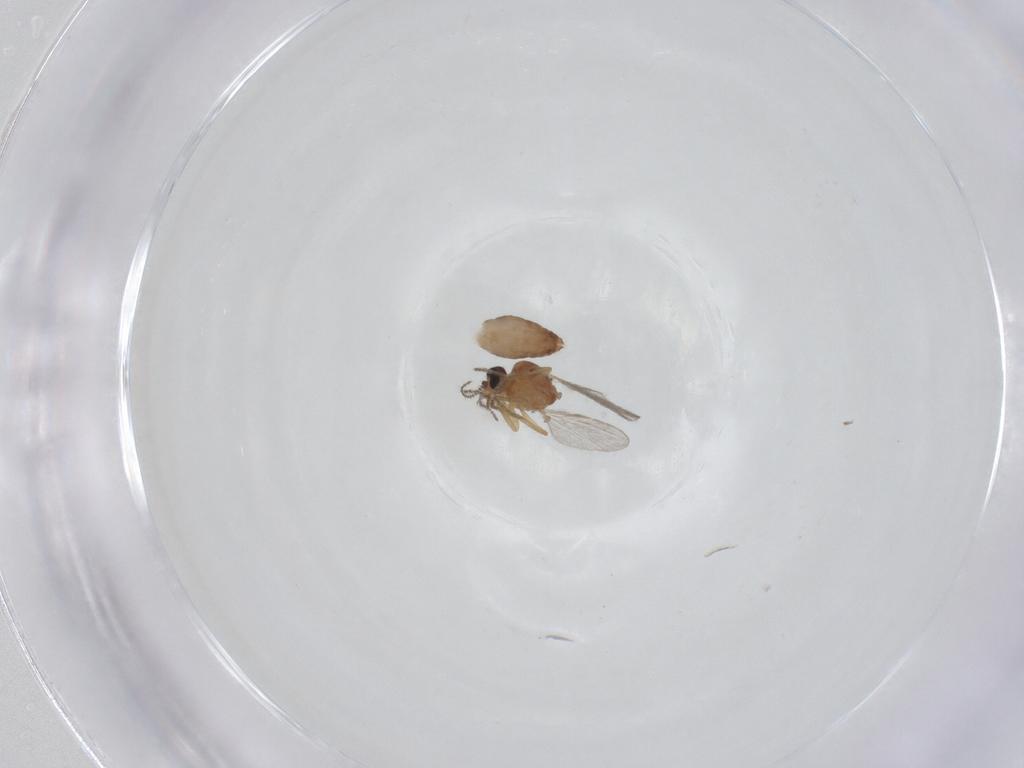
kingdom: Animalia
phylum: Arthropoda
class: Insecta
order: Diptera
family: Ceratopogonidae
